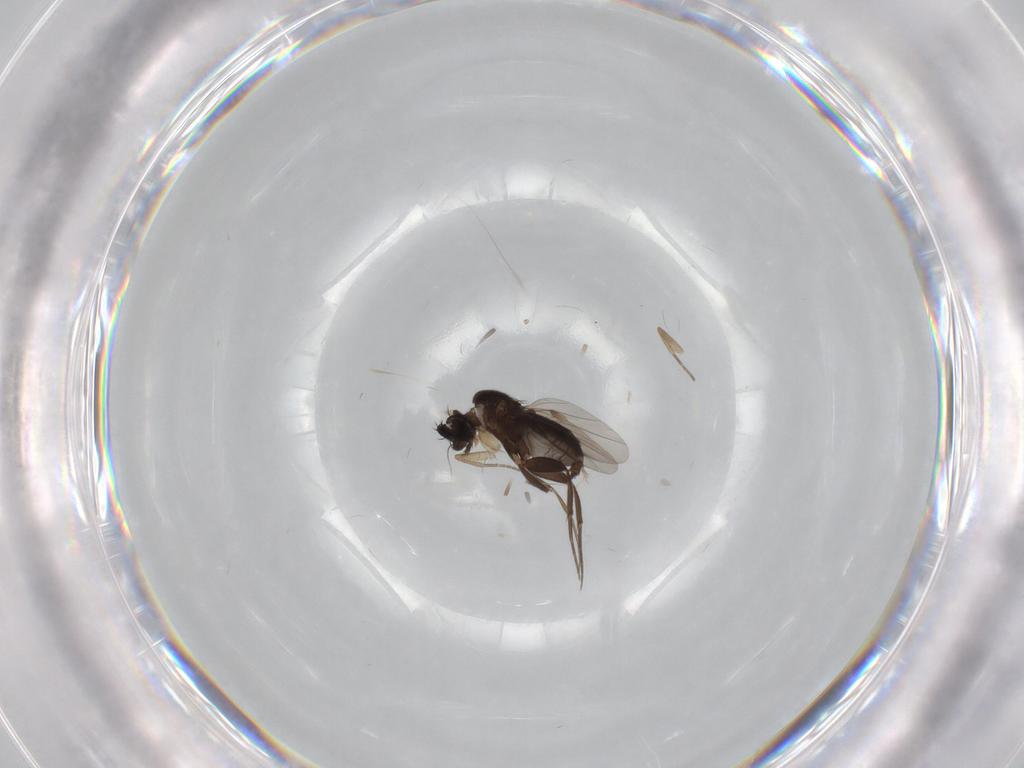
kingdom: Animalia
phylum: Arthropoda
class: Insecta
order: Diptera
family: Phoridae
